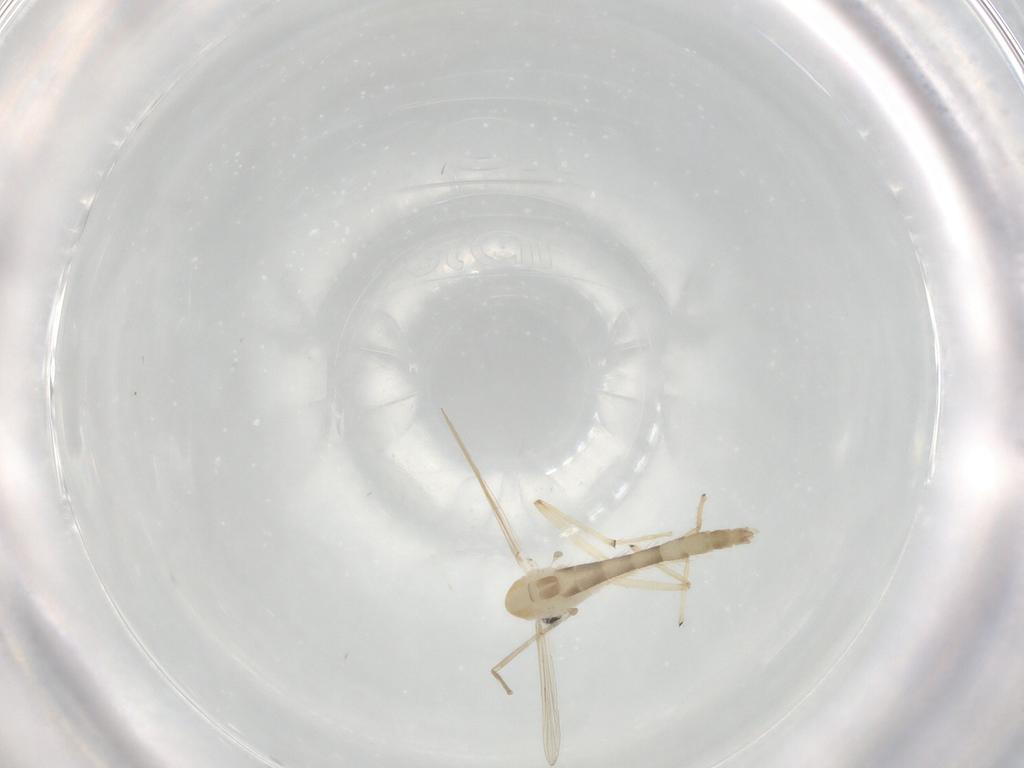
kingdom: Animalia
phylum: Arthropoda
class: Insecta
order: Diptera
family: Chironomidae
